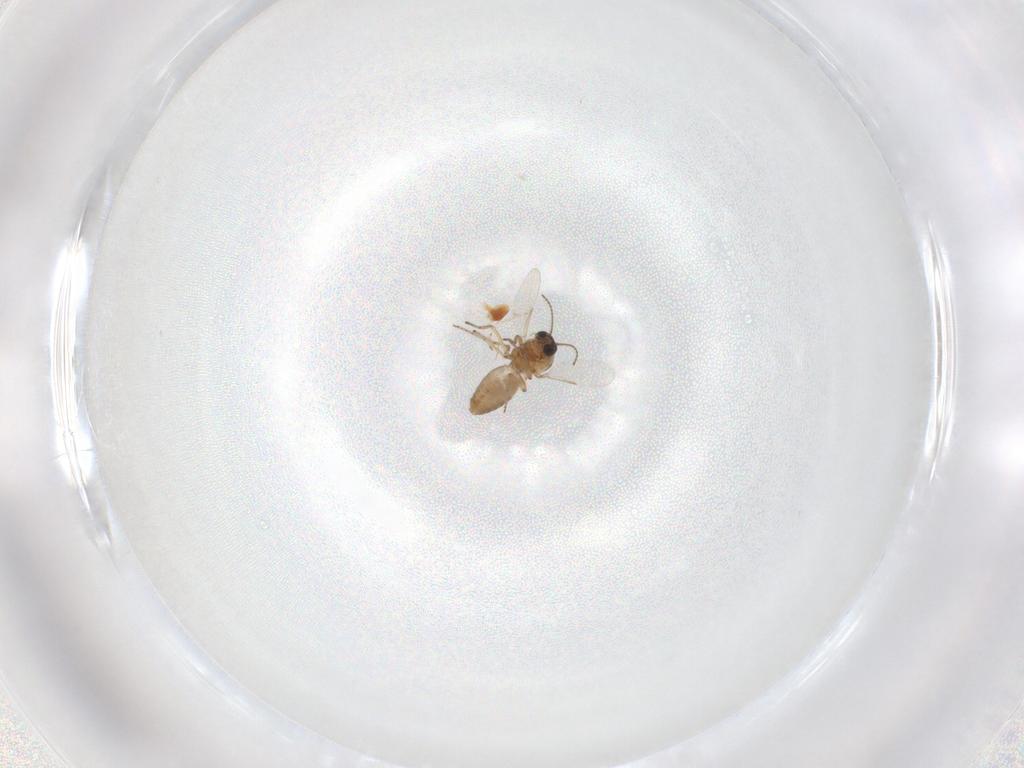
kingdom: Animalia
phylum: Arthropoda
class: Insecta
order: Diptera
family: Ceratopogonidae
